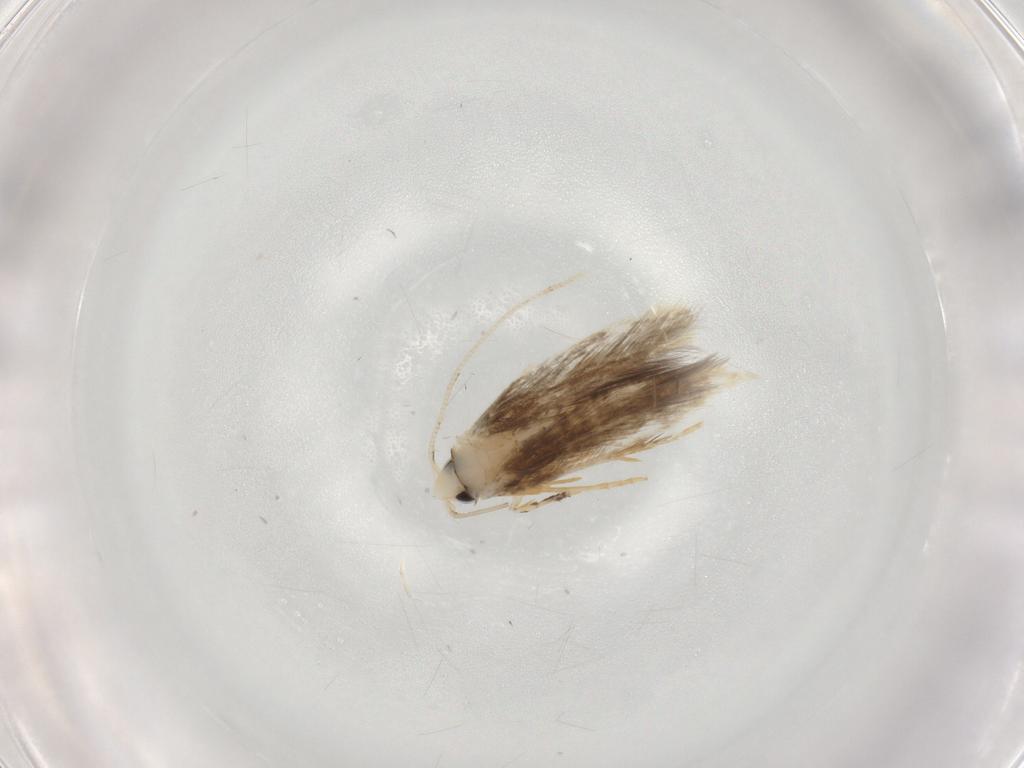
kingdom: Animalia
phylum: Arthropoda
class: Insecta
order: Lepidoptera
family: Tineidae
